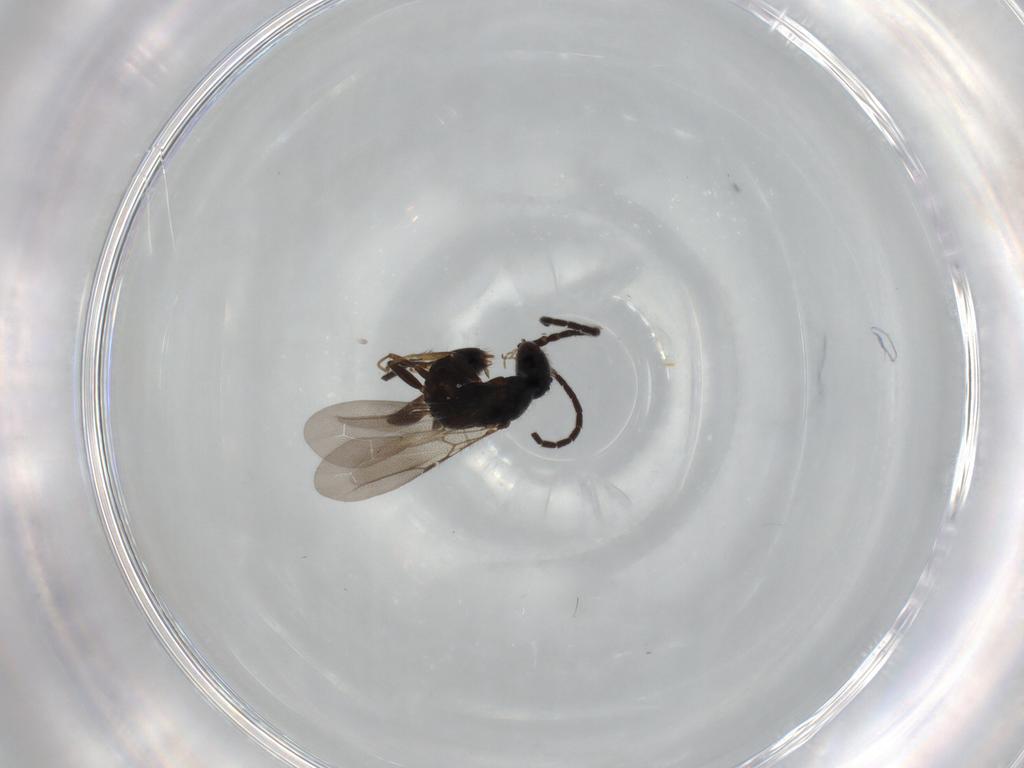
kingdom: Animalia
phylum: Arthropoda
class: Insecta
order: Hymenoptera
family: Bethylidae
